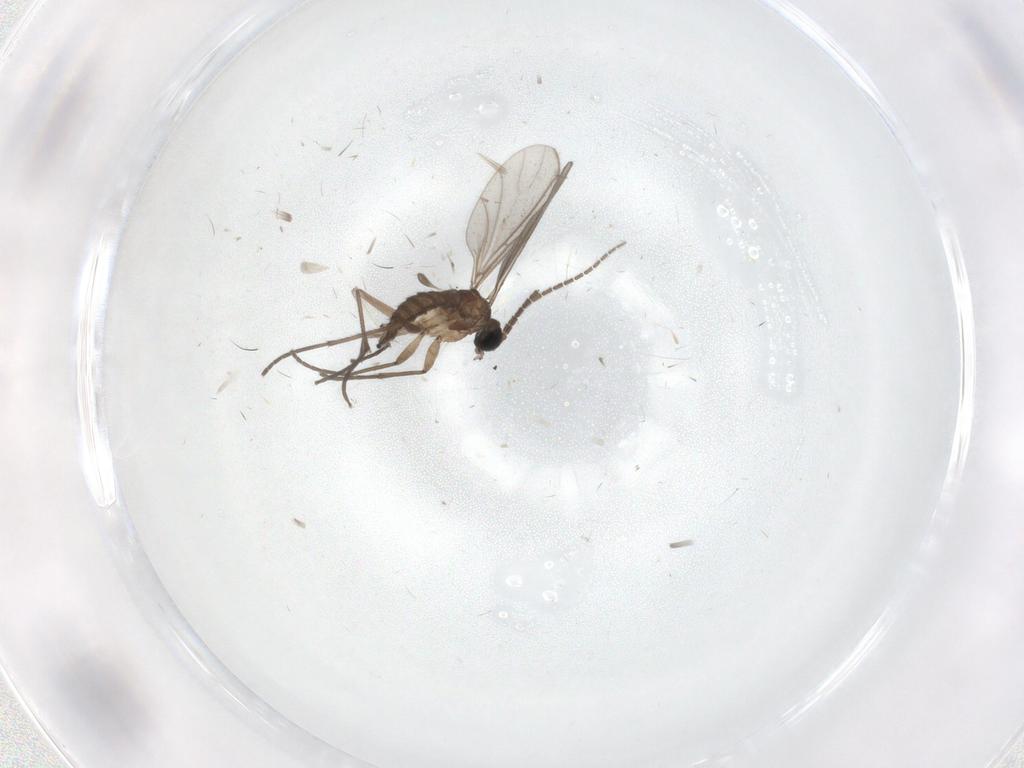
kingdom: Animalia
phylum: Arthropoda
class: Insecta
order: Diptera
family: Sciaridae
